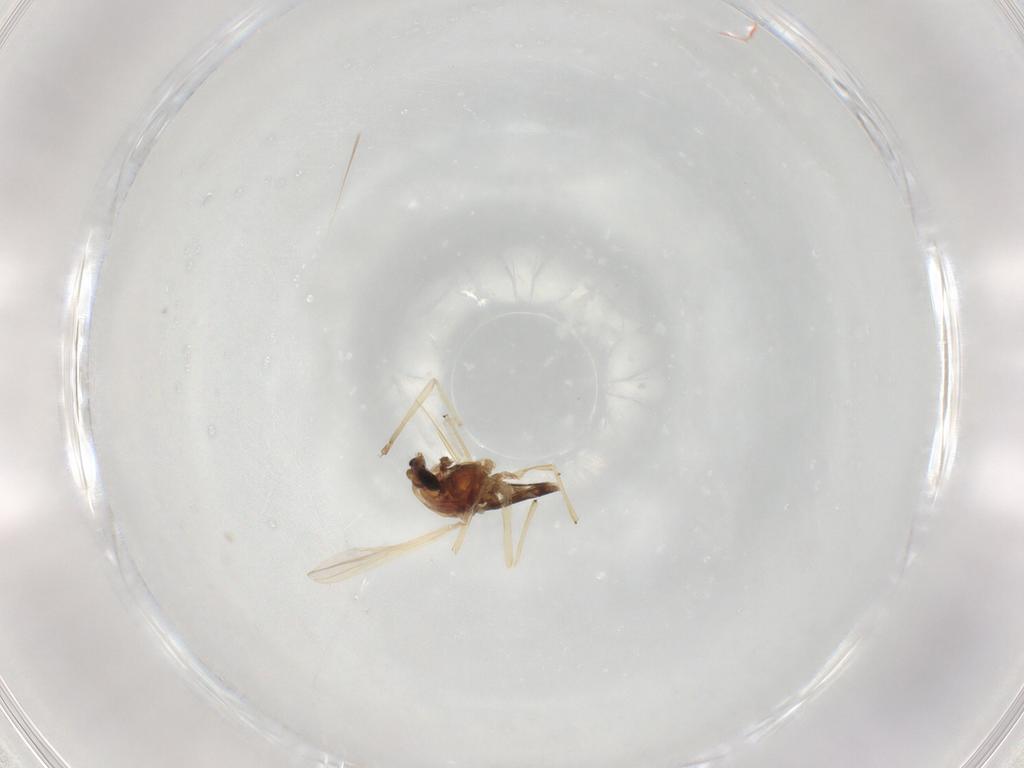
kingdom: Animalia
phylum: Arthropoda
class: Insecta
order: Diptera
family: Chironomidae
